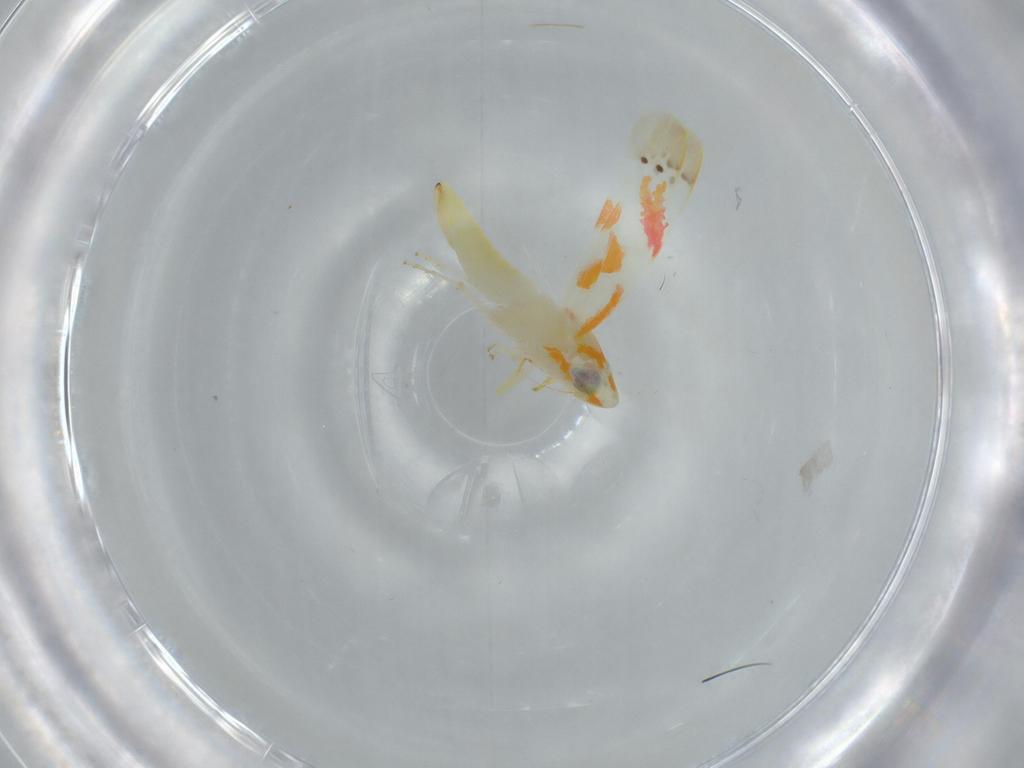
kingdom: Animalia
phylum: Arthropoda
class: Insecta
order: Hemiptera
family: Cicadellidae
